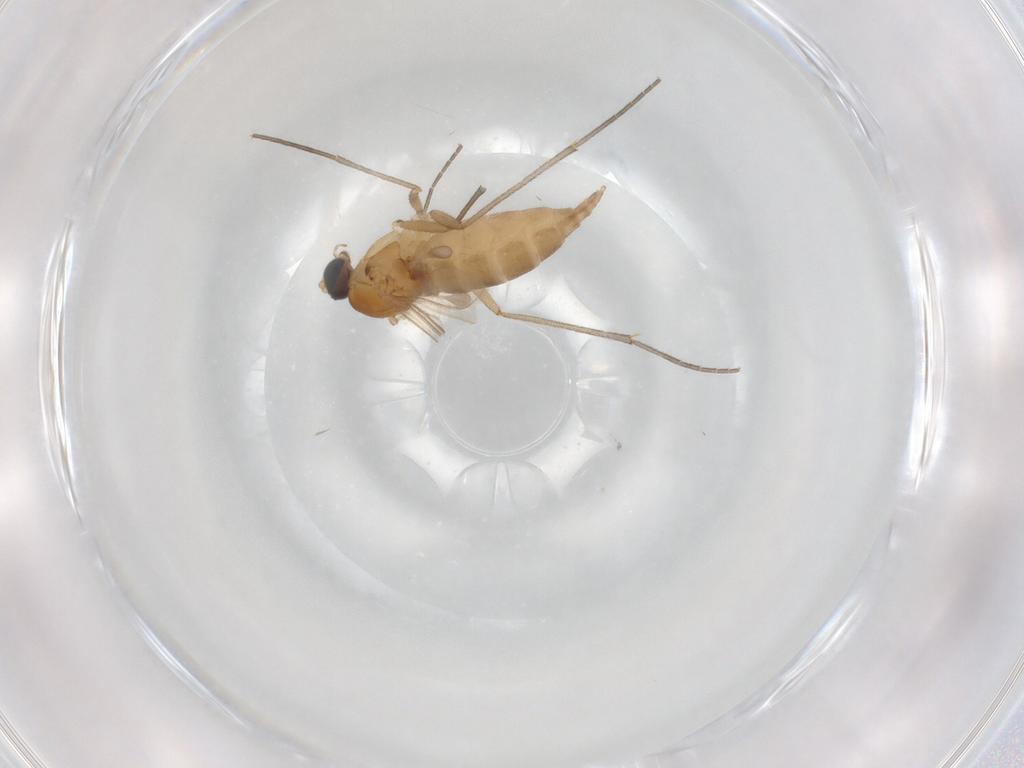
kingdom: Animalia
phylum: Arthropoda
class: Insecta
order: Diptera
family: Sciaridae
